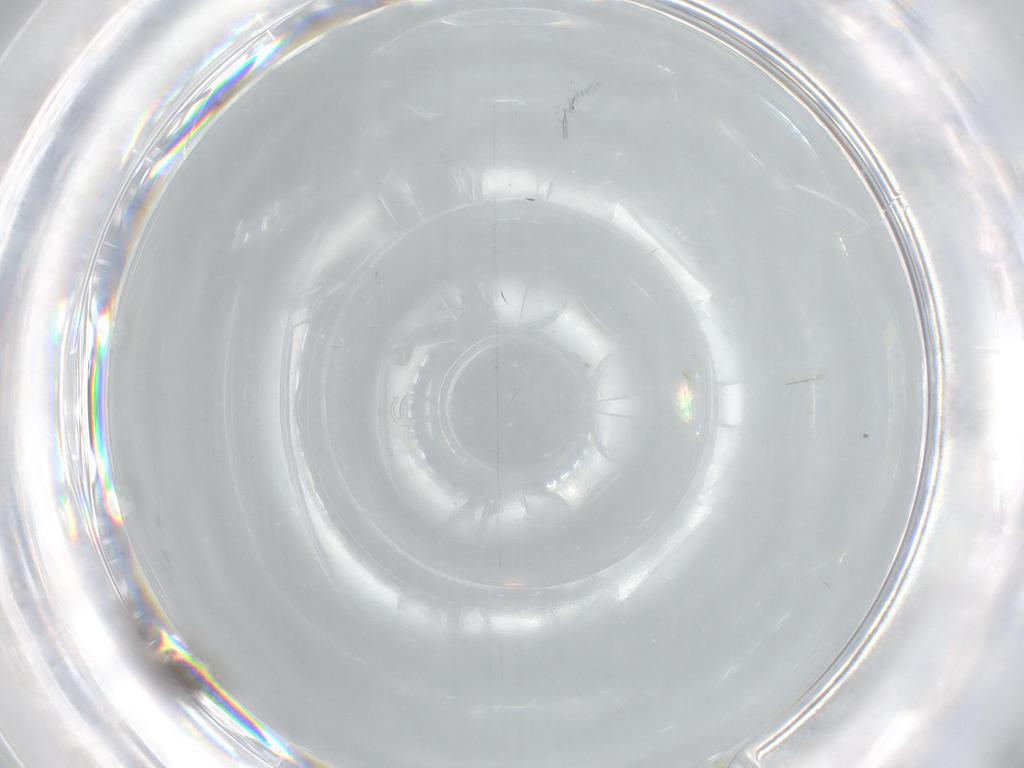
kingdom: Animalia
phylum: Arthropoda
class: Insecta
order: Diptera
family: Cecidomyiidae
